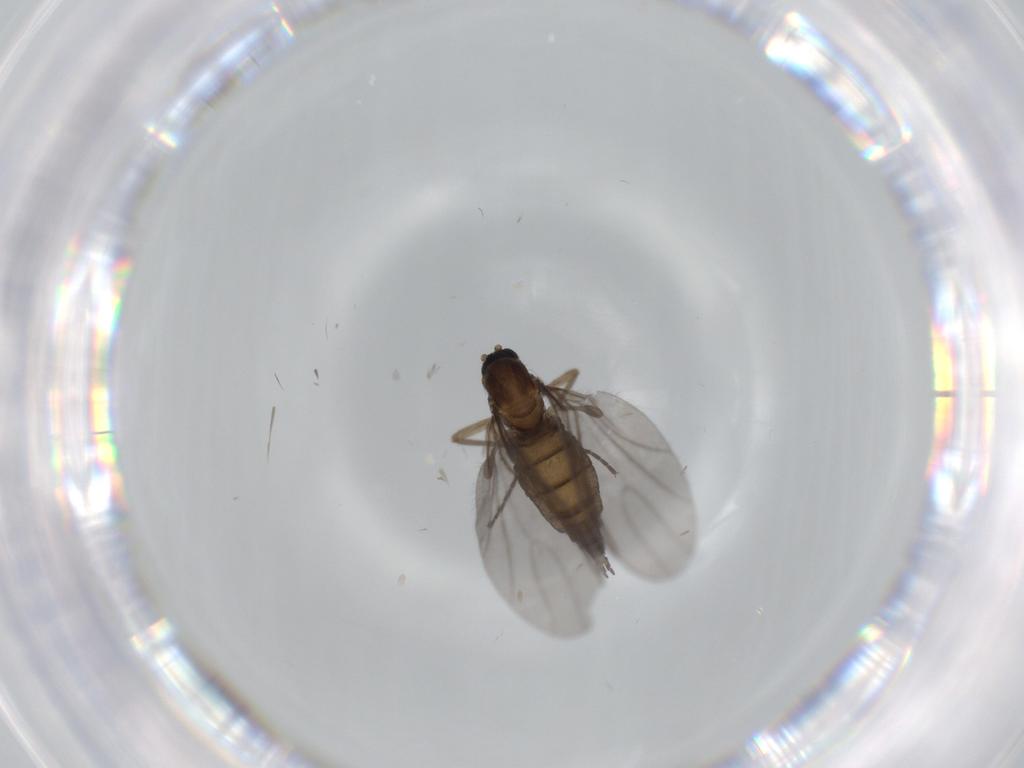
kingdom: Animalia
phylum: Arthropoda
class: Insecta
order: Diptera
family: Sciaridae
